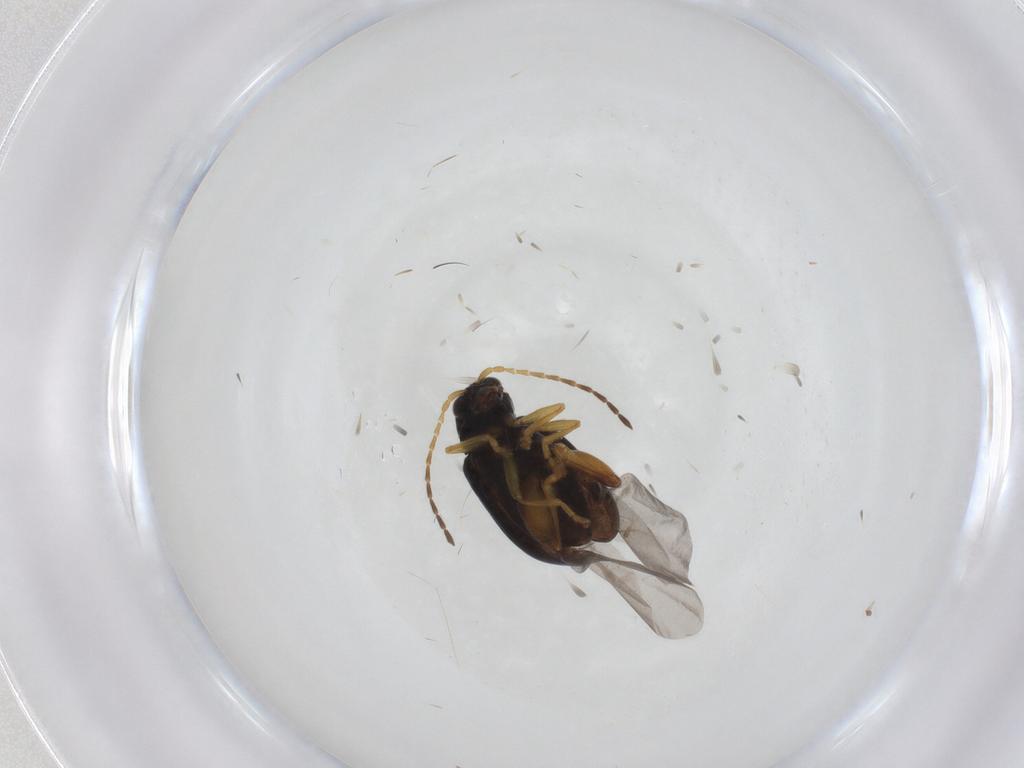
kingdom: Animalia
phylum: Arthropoda
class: Insecta
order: Coleoptera
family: Chrysomelidae
